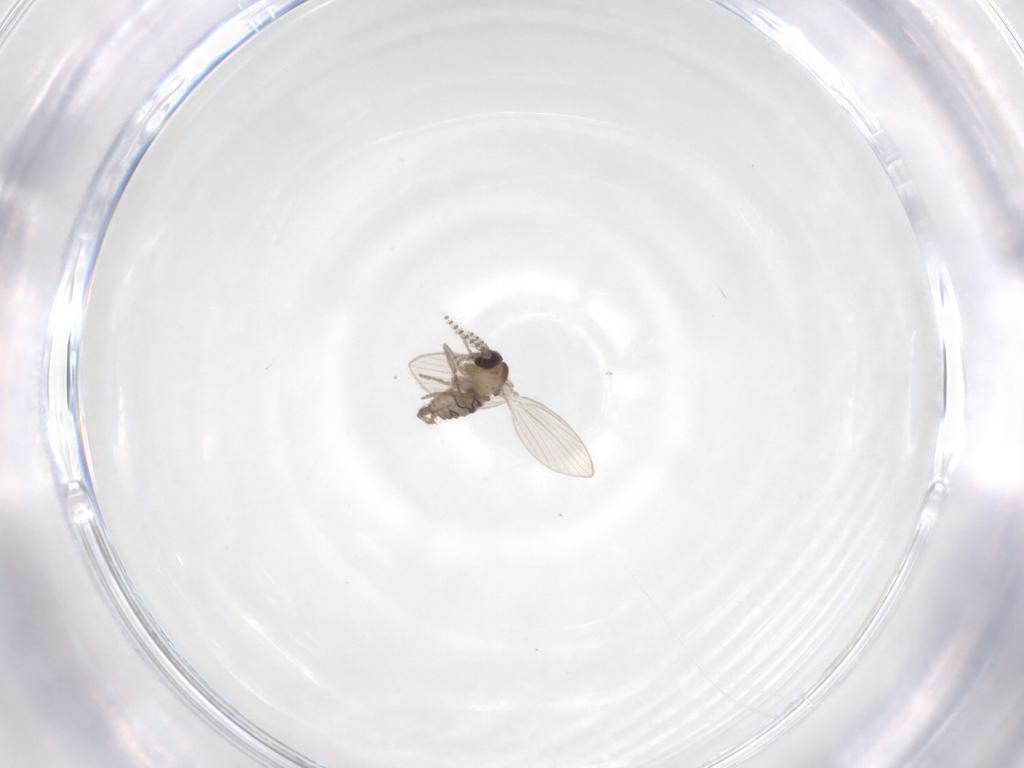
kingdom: Animalia
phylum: Arthropoda
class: Insecta
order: Diptera
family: Psychodidae
